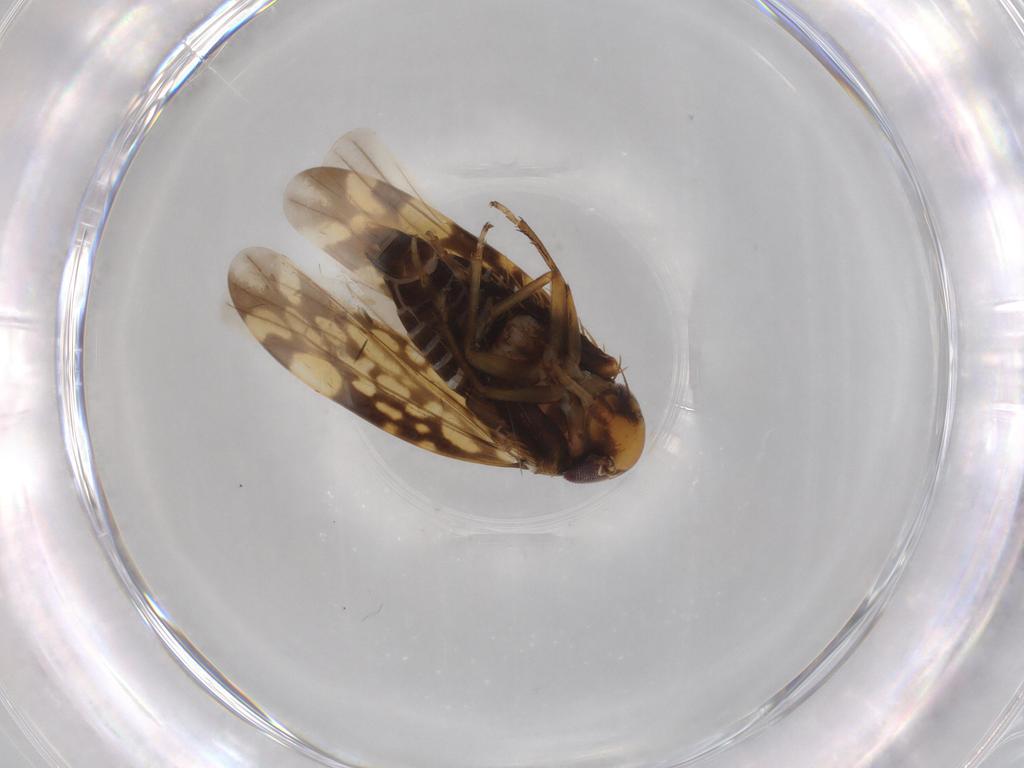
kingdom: Animalia
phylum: Arthropoda
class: Insecta
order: Hemiptera
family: Cicadellidae
